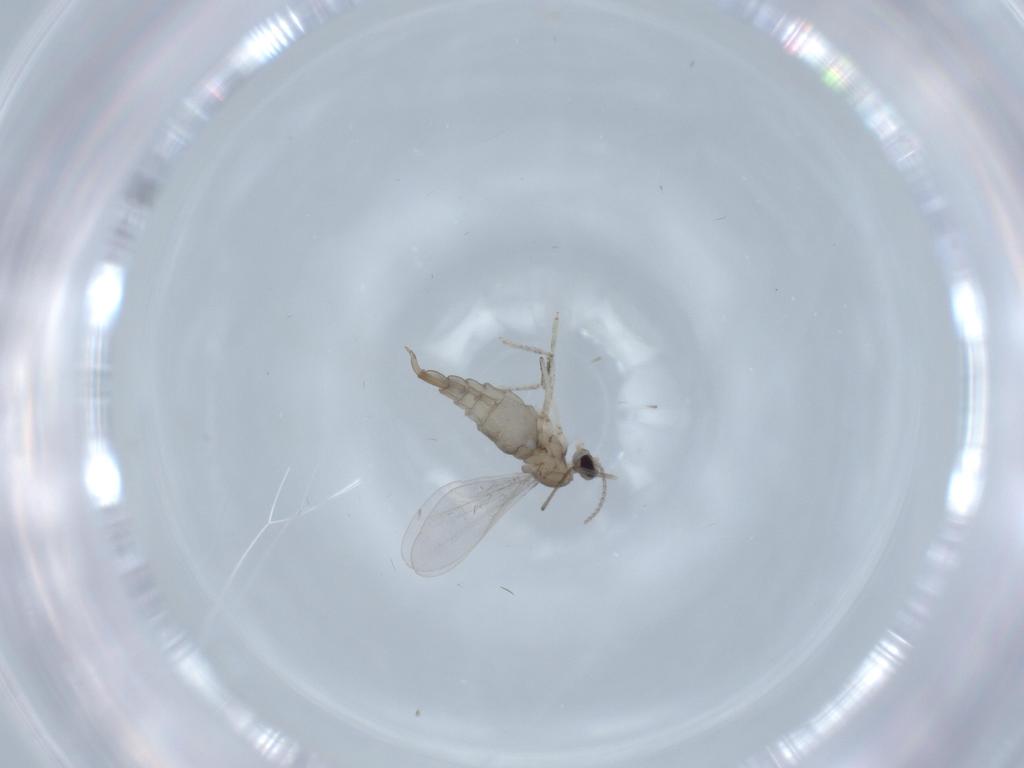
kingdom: Animalia
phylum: Arthropoda
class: Insecta
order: Diptera
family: Cecidomyiidae
